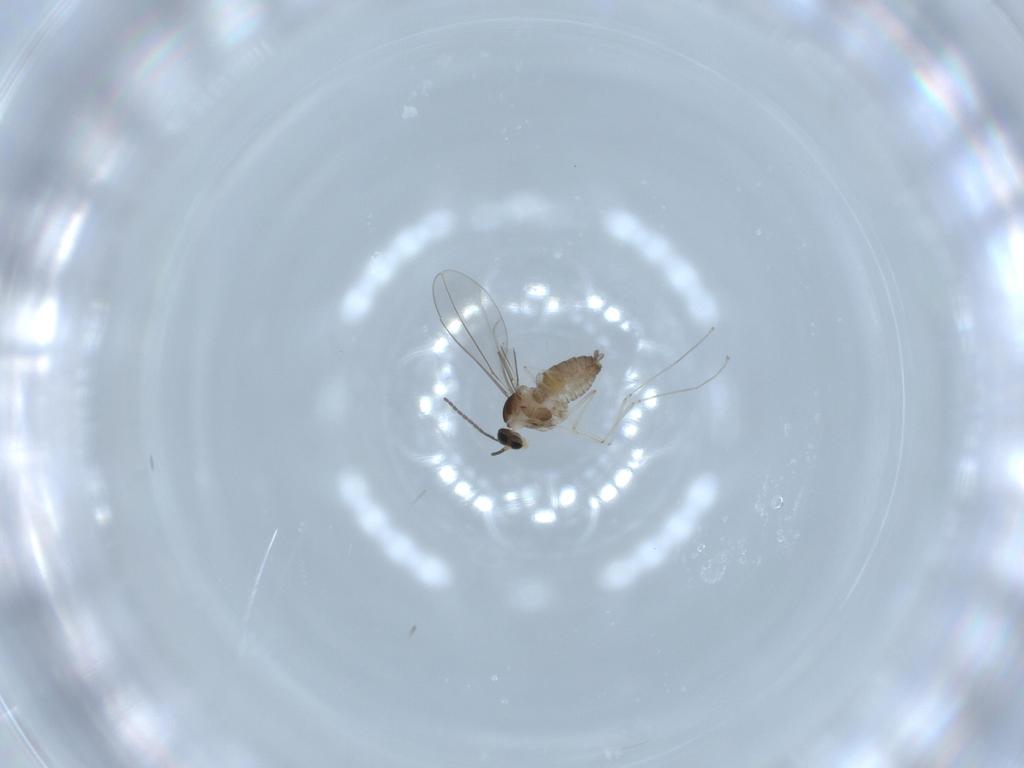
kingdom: Animalia
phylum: Arthropoda
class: Insecta
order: Diptera
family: Cecidomyiidae
